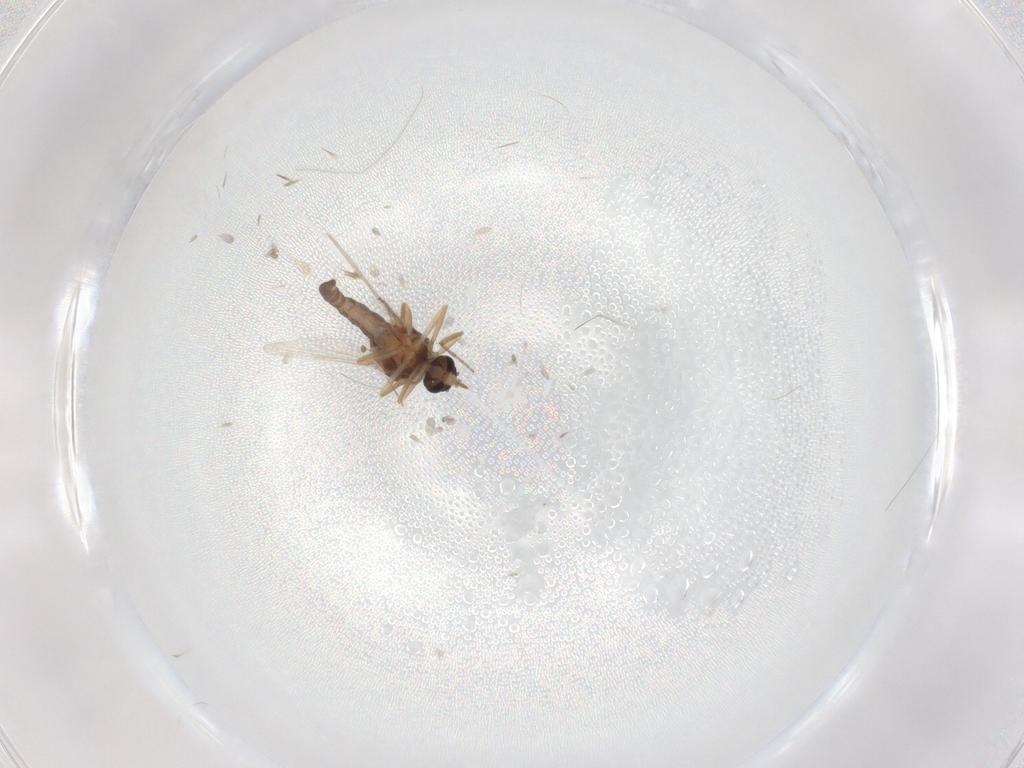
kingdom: Animalia
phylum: Arthropoda
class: Insecta
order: Diptera
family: Ceratopogonidae
